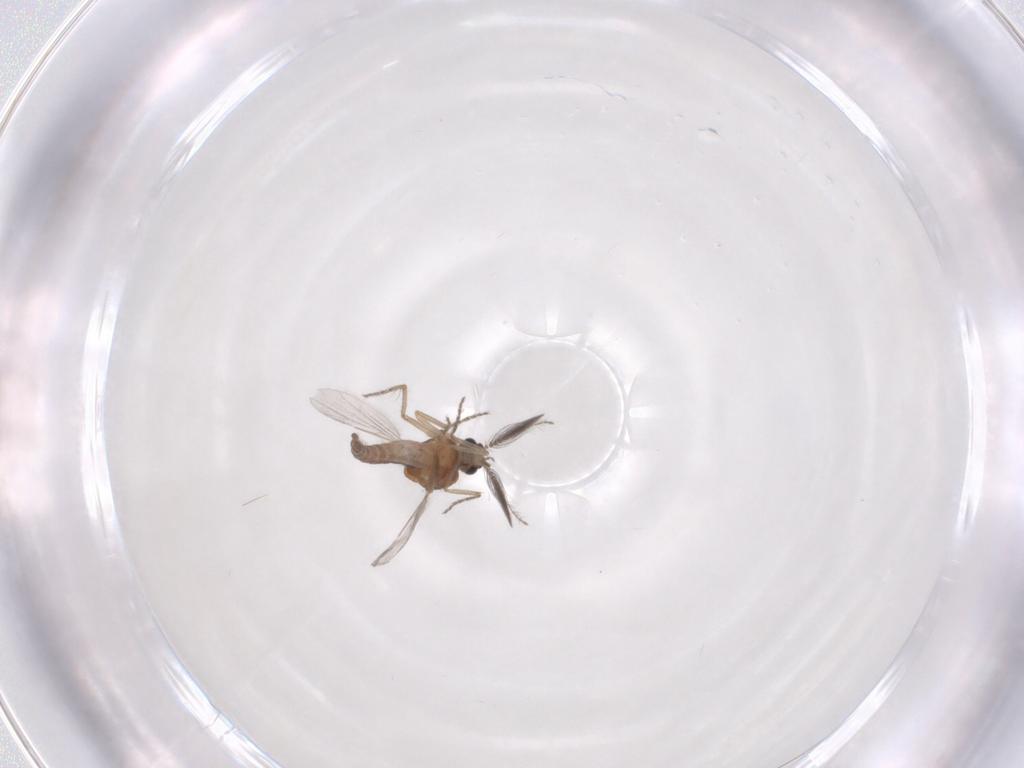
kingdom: Animalia
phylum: Arthropoda
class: Insecta
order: Diptera
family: Ceratopogonidae
